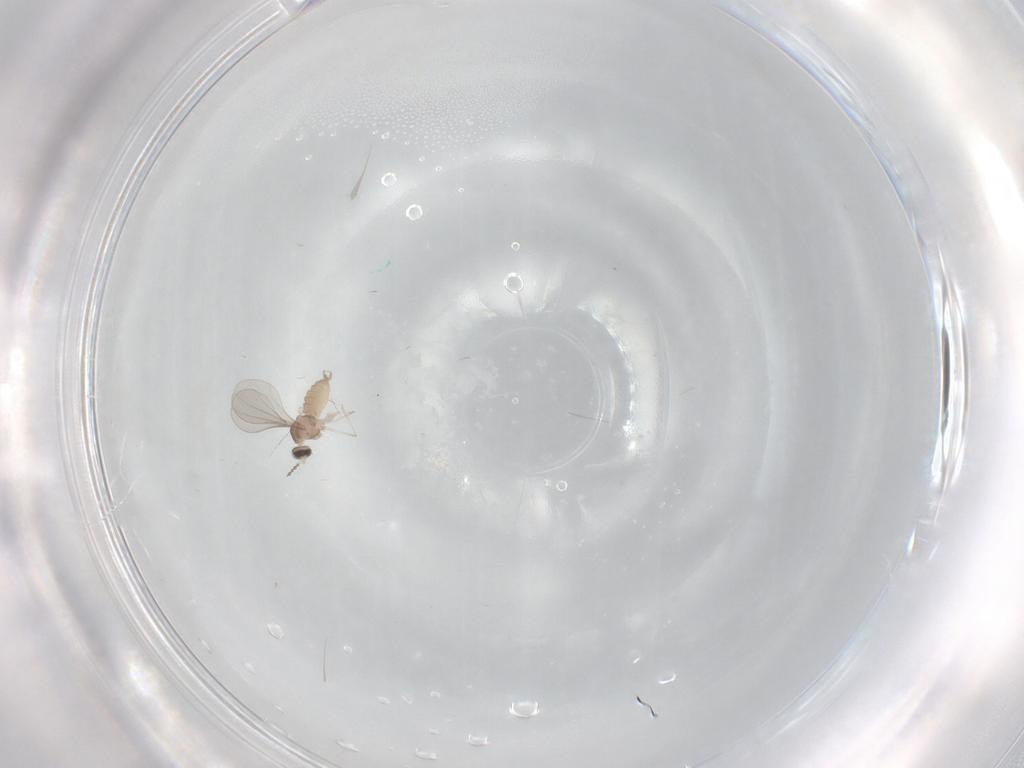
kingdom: Animalia
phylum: Arthropoda
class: Insecta
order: Diptera
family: Cecidomyiidae
